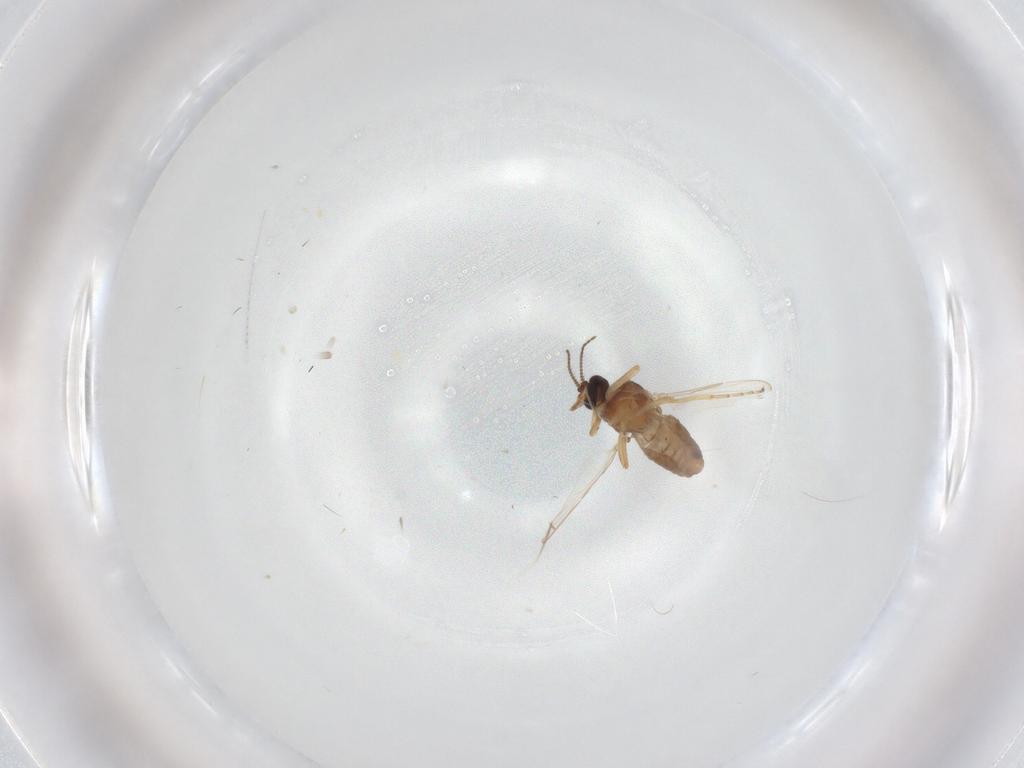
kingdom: Animalia
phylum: Arthropoda
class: Insecta
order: Diptera
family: Ceratopogonidae
